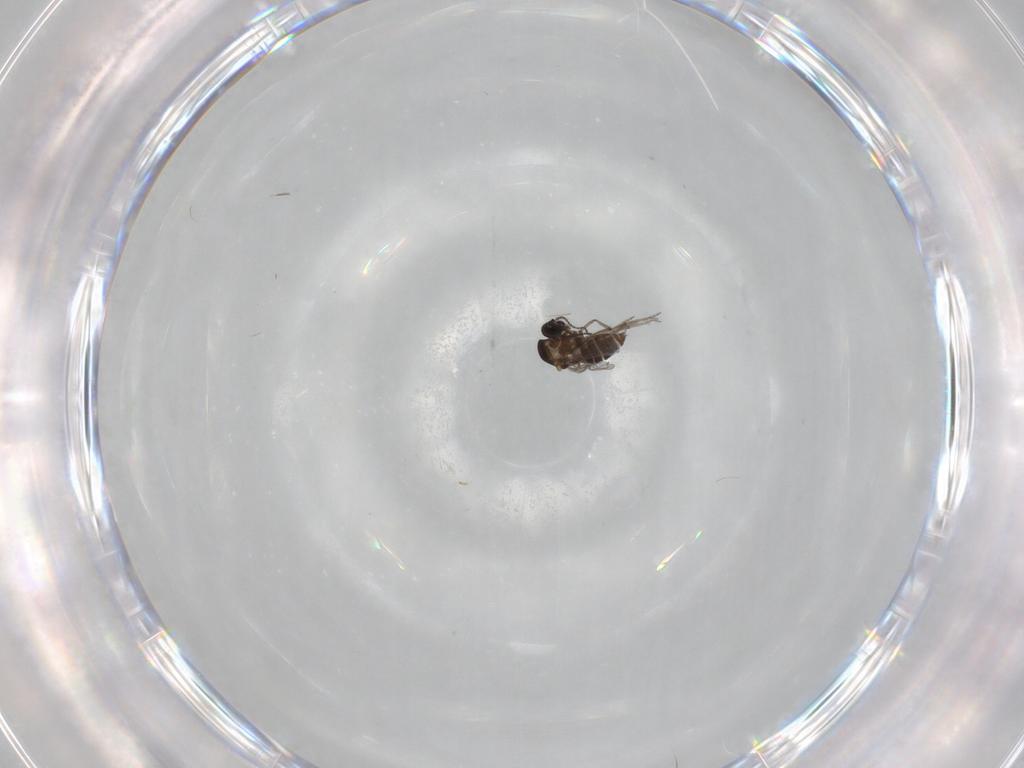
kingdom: Animalia
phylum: Arthropoda
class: Insecta
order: Diptera
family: Ceratopogonidae
